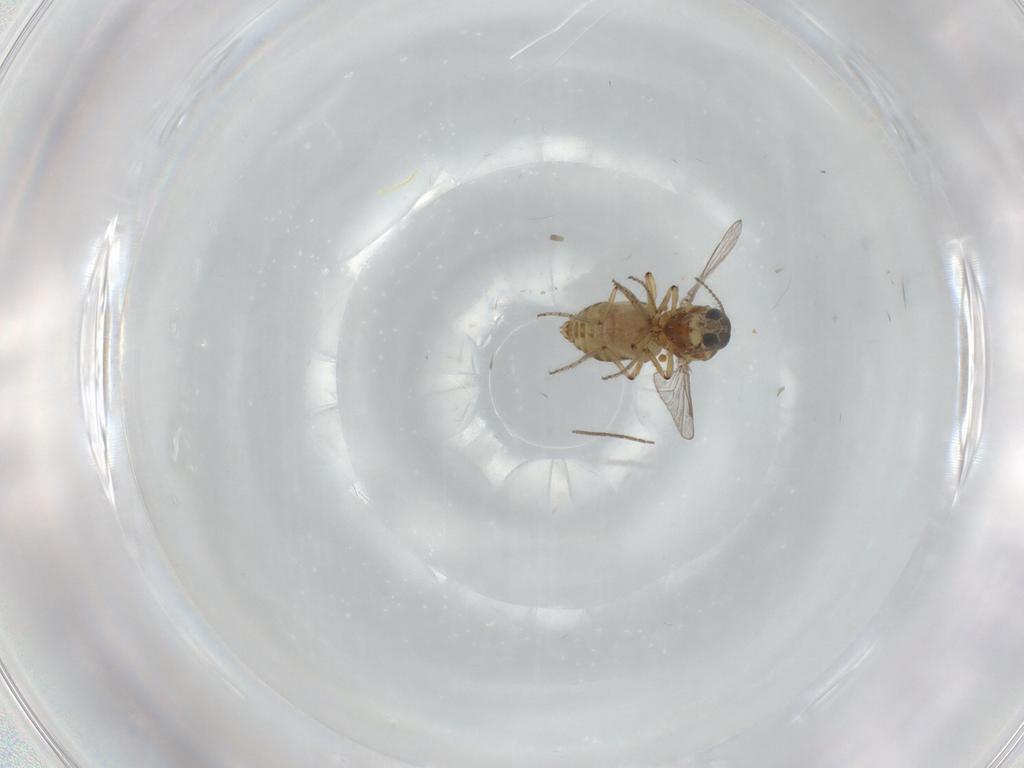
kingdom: Animalia
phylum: Arthropoda
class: Insecta
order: Diptera
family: Ceratopogonidae
